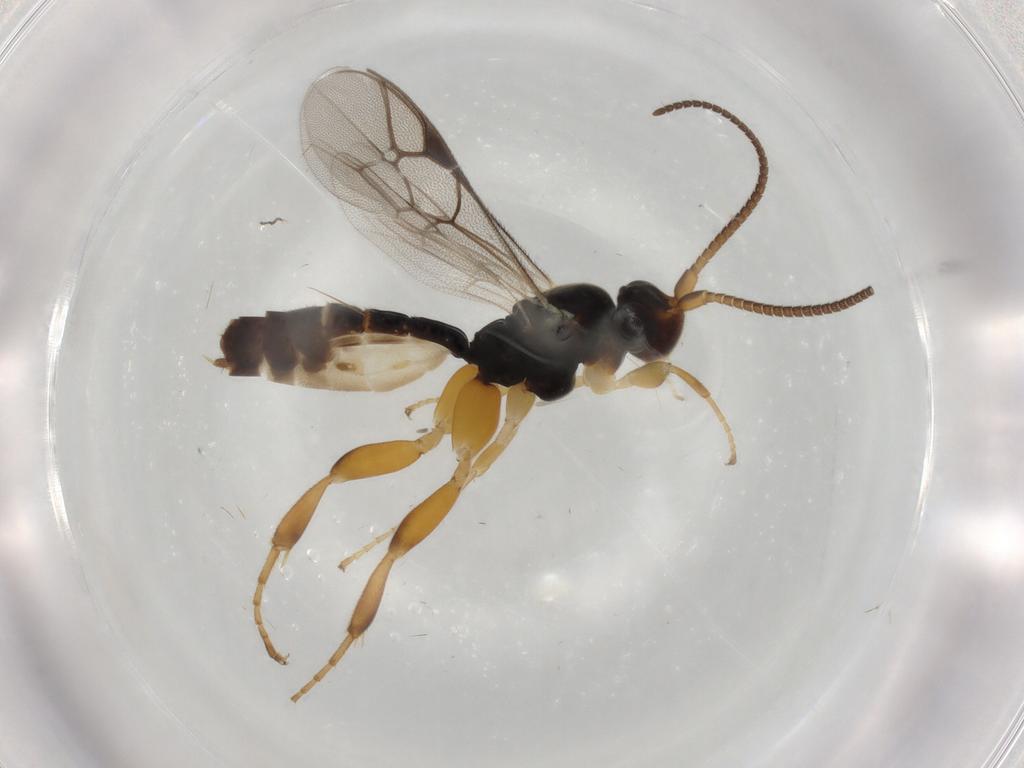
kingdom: Animalia
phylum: Arthropoda
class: Insecta
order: Hymenoptera
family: Ichneumonidae
